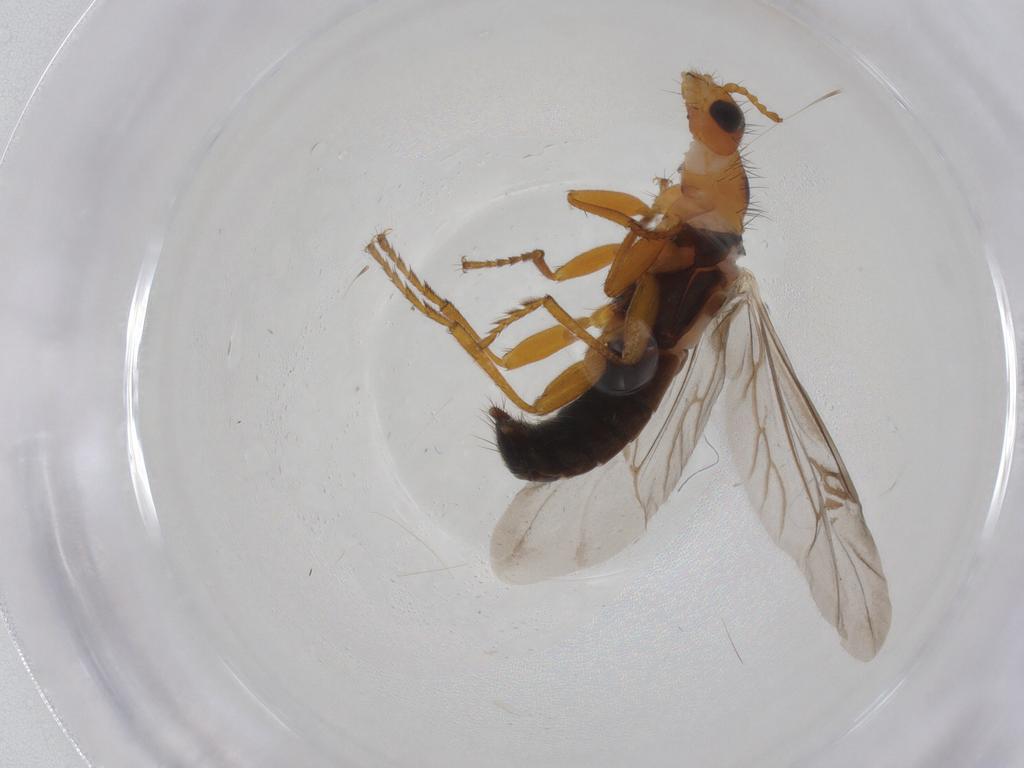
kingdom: Animalia
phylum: Arthropoda
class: Insecta
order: Coleoptera
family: Melyridae
